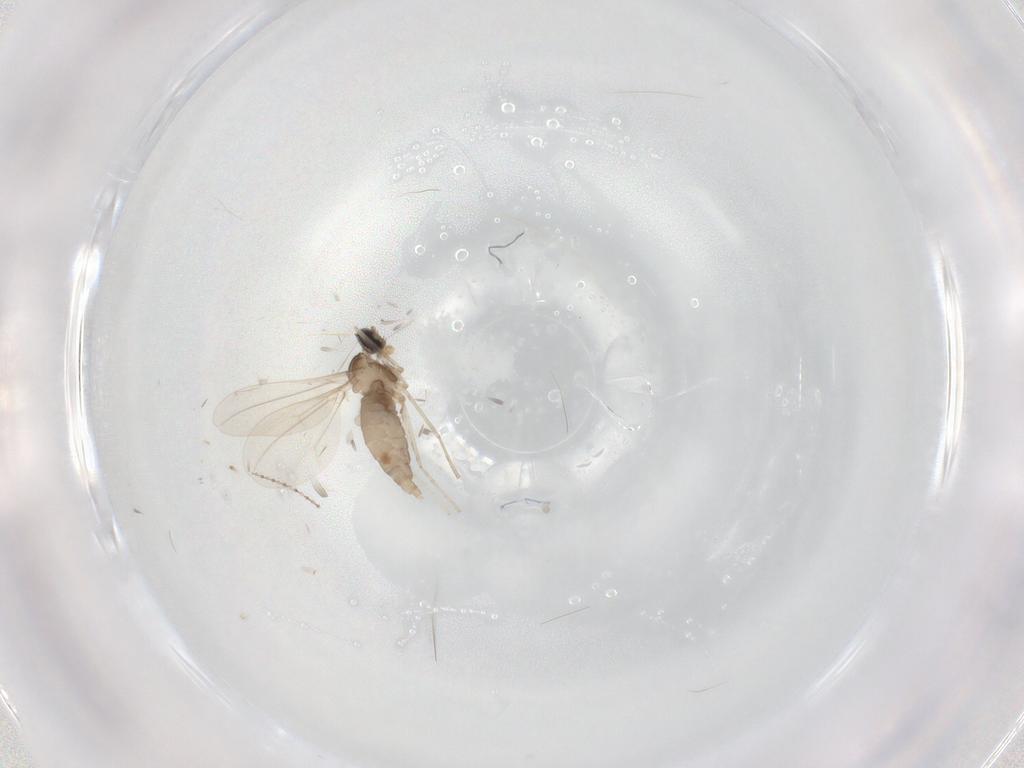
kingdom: Animalia
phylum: Arthropoda
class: Insecta
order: Diptera
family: Cecidomyiidae
